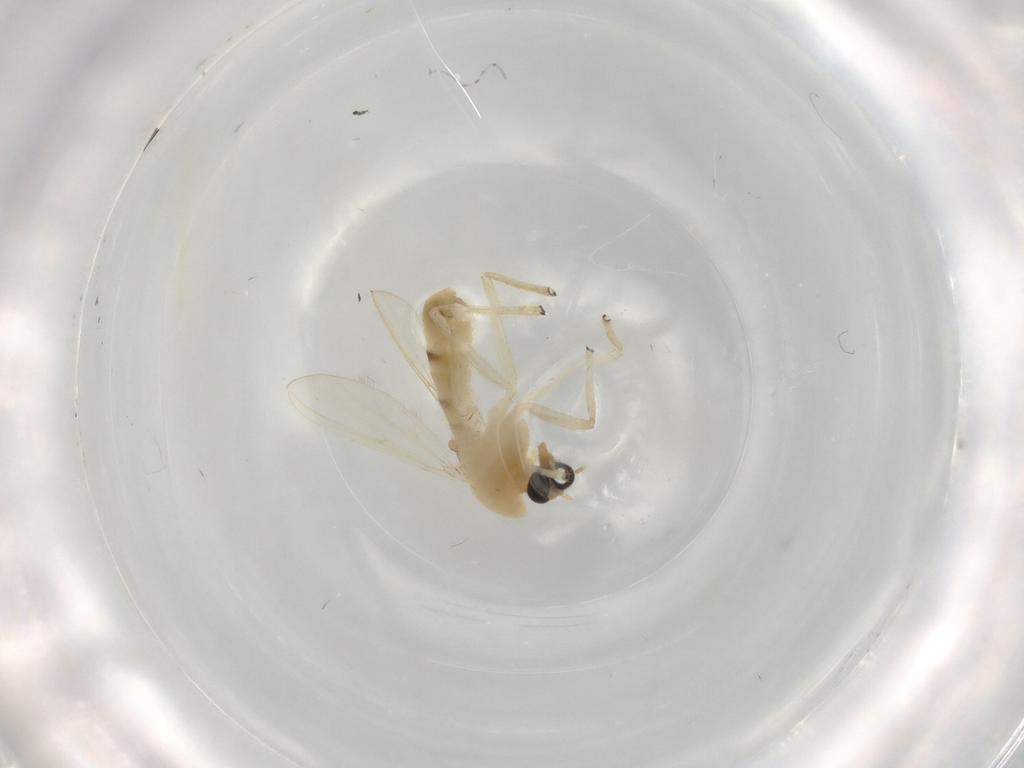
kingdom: Animalia
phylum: Arthropoda
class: Insecta
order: Diptera
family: Chironomidae
